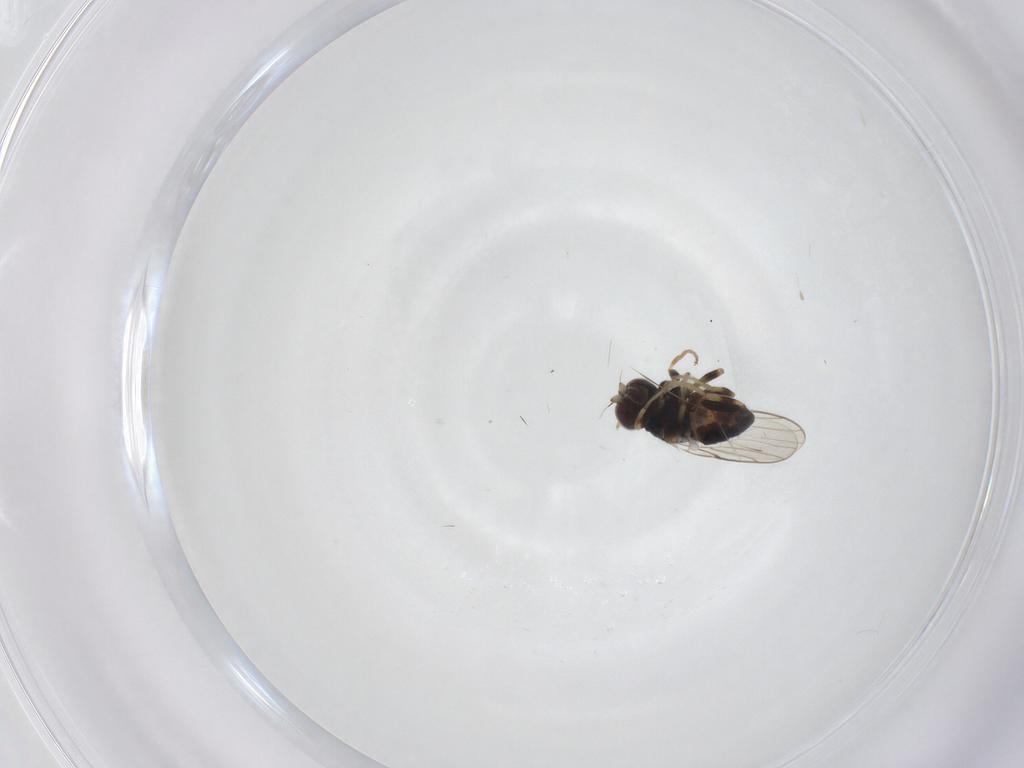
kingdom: Animalia
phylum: Arthropoda
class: Insecta
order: Diptera
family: Chloropidae
